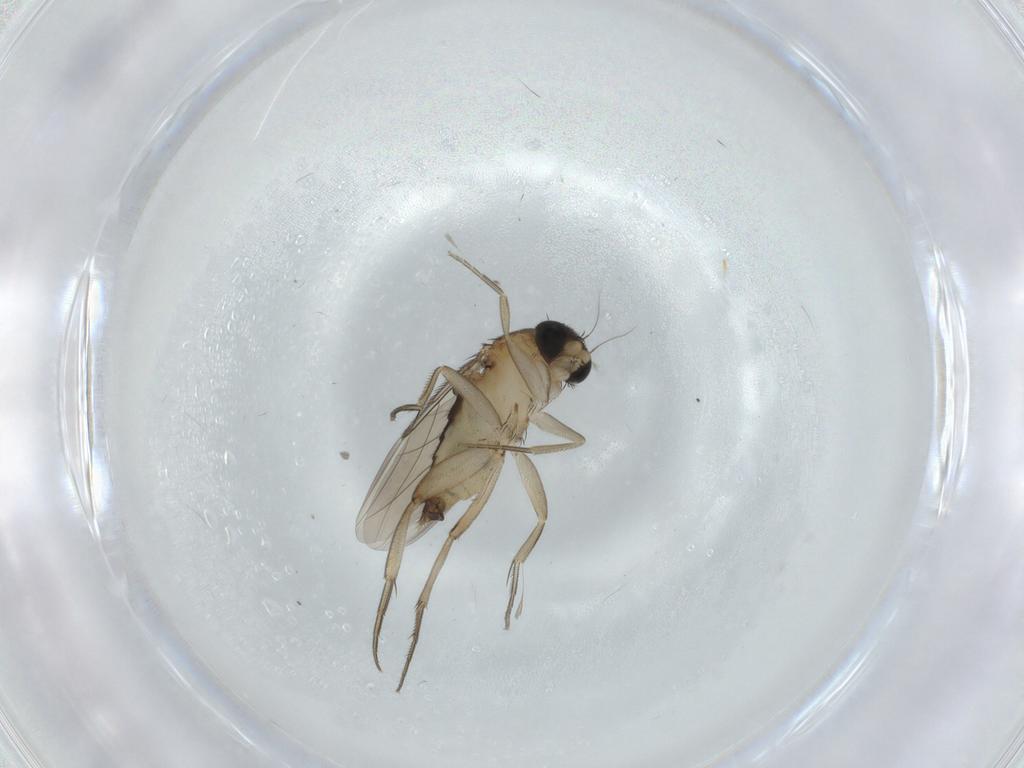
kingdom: Animalia
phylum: Arthropoda
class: Insecta
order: Diptera
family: Phoridae
